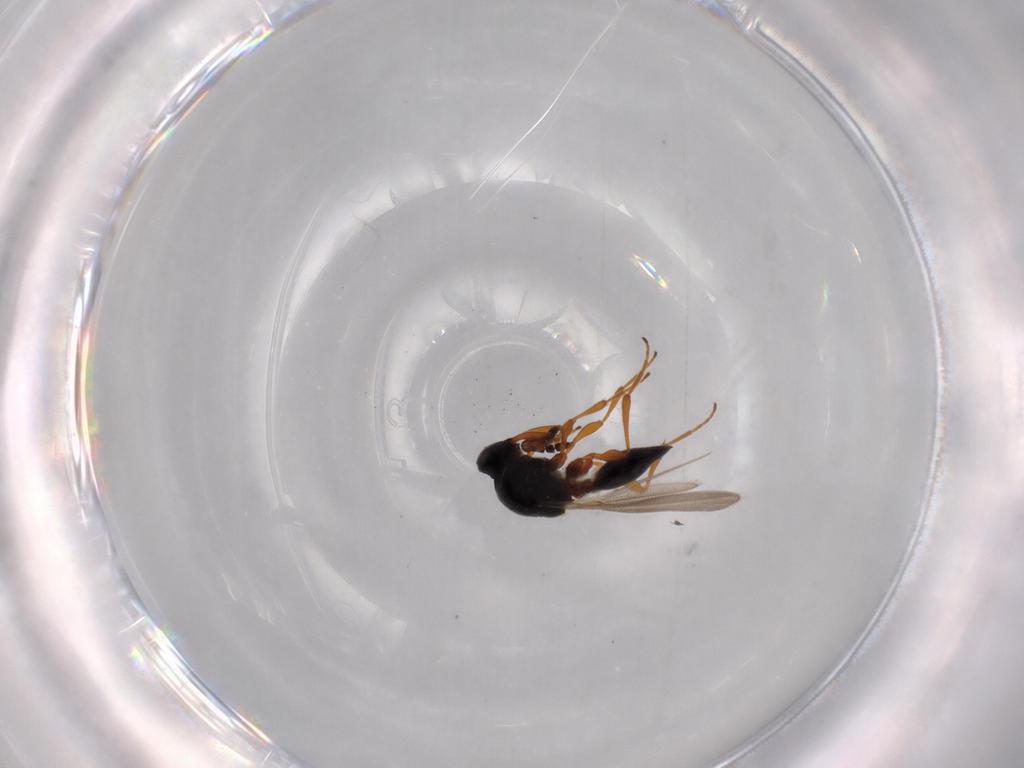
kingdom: Animalia
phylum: Arthropoda
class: Insecta
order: Hymenoptera
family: Platygastridae
